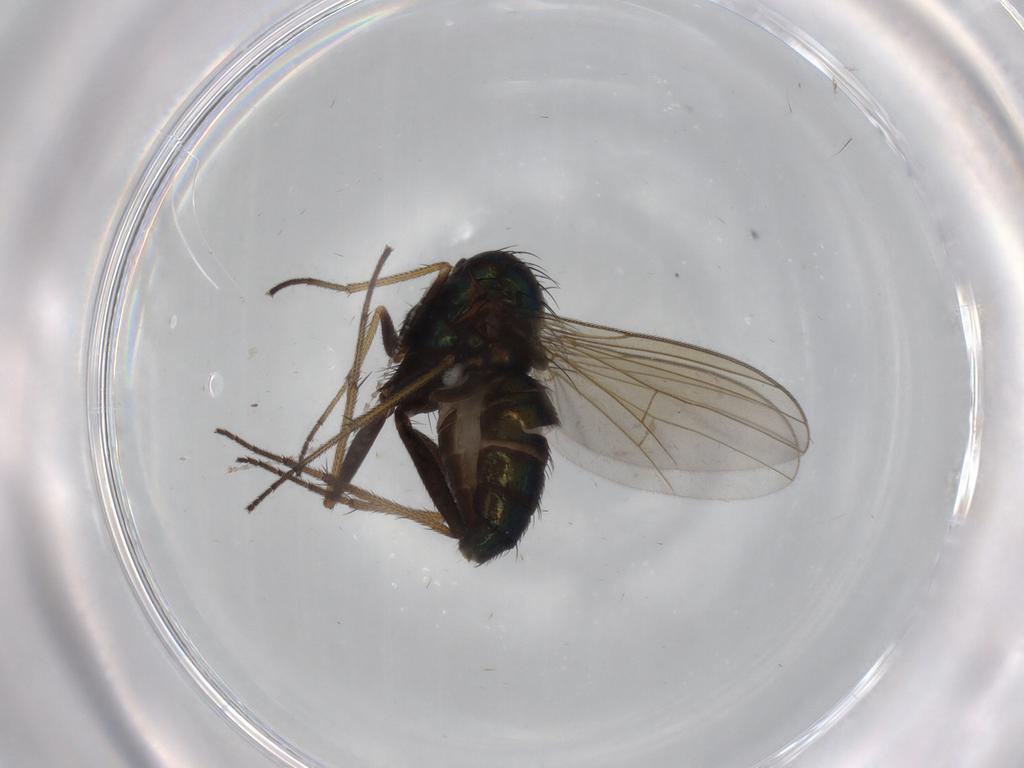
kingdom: Animalia
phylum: Arthropoda
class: Insecta
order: Diptera
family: Dolichopodidae
